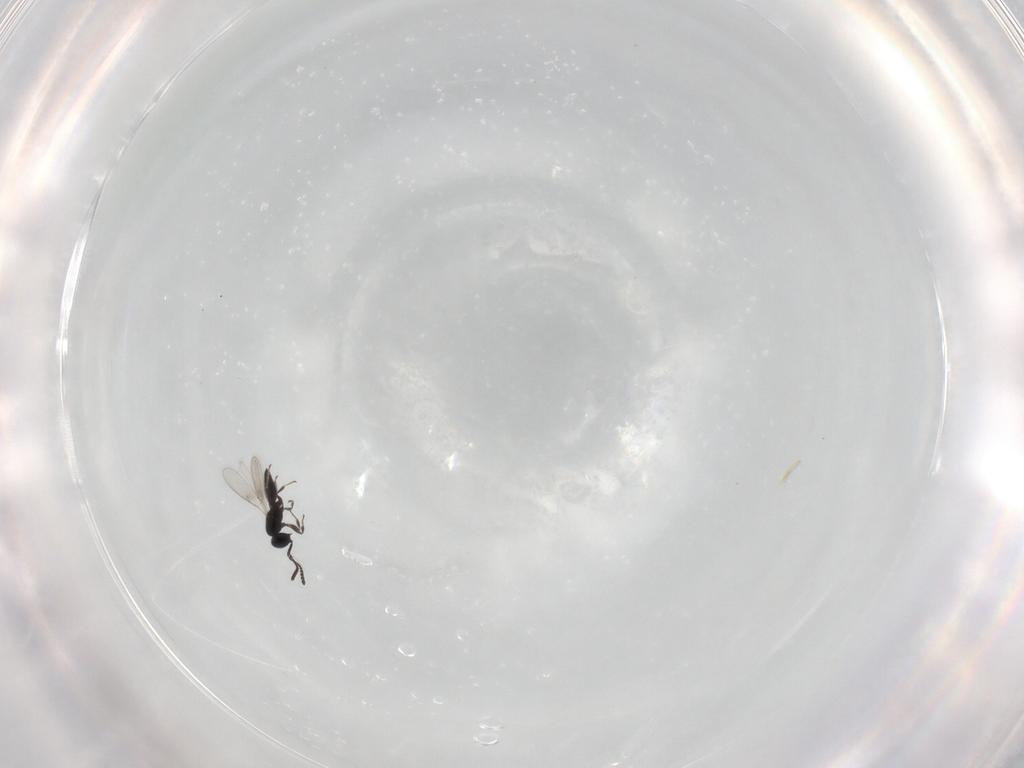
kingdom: Animalia
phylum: Arthropoda
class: Insecta
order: Hymenoptera
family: Scelionidae
